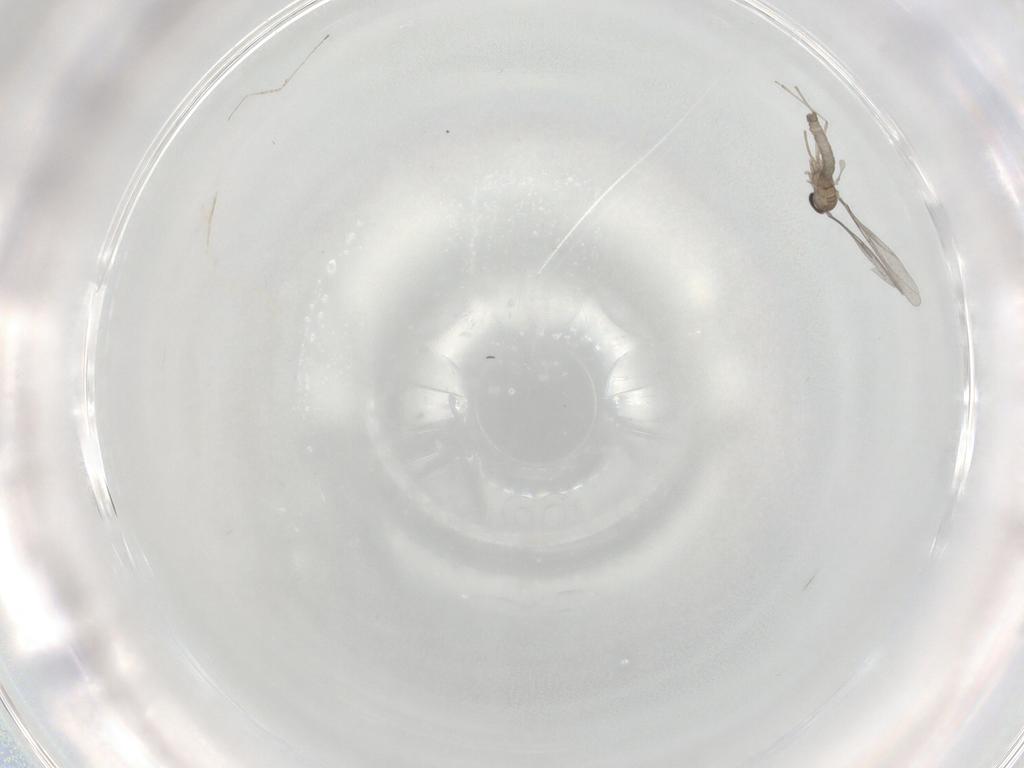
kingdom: Animalia
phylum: Arthropoda
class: Insecta
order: Diptera
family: Cecidomyiidae
